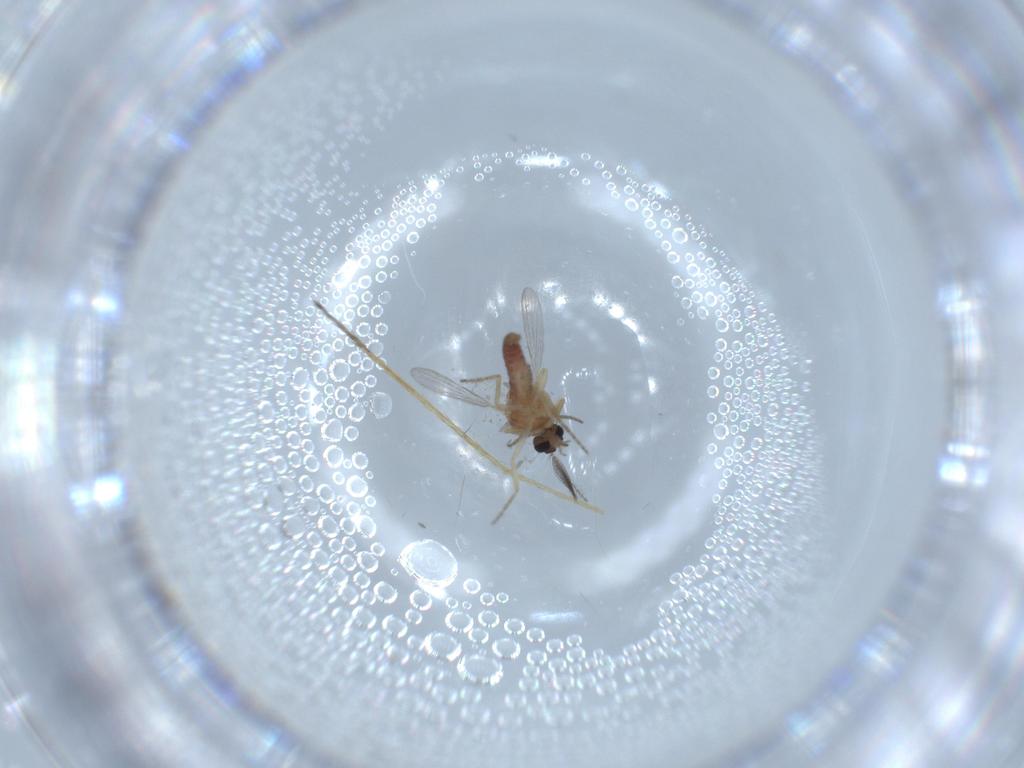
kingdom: Animalia
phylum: Arthropoda
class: Insecta
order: Diptera
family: Ceratopogonidae
